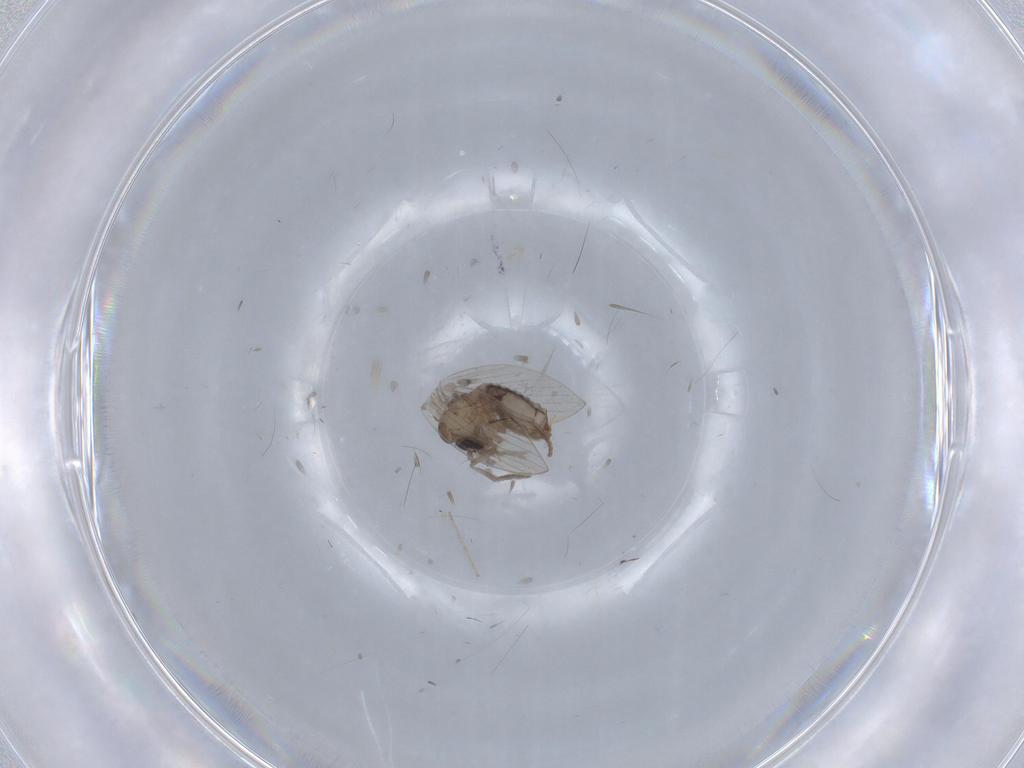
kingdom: Animalia
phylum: Arthropoda
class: Insecta
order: Diptera
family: Psychodidae
